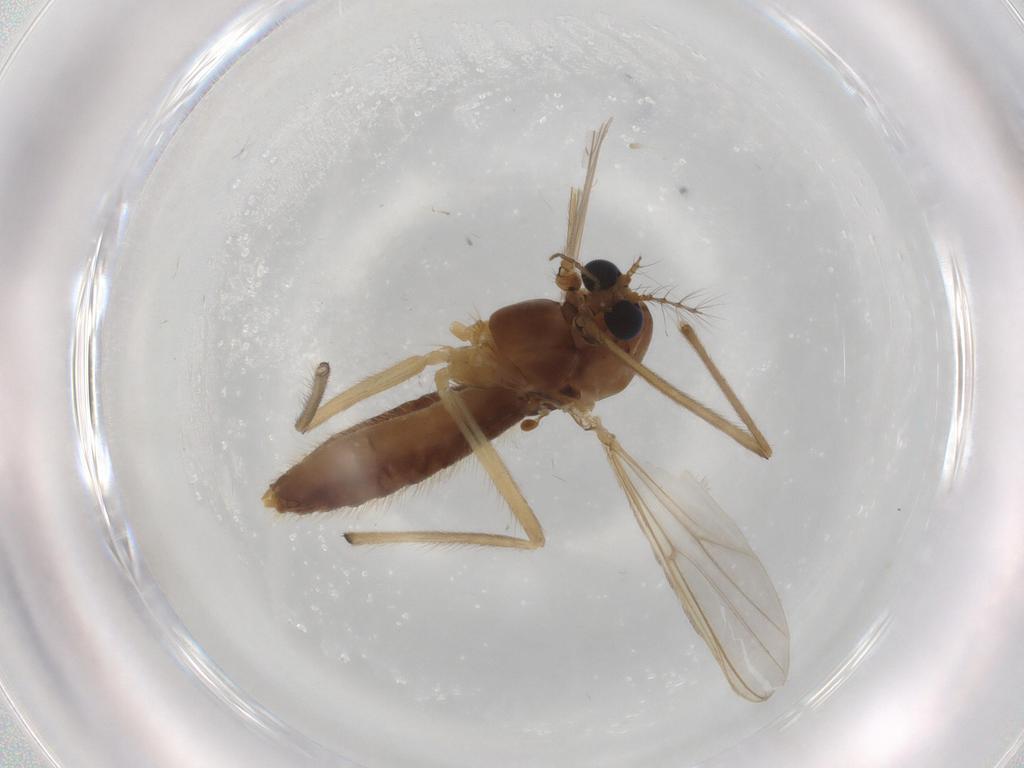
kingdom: Animalia
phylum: Arthropoda
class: Insecta
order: Diptera
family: Chironomidae
